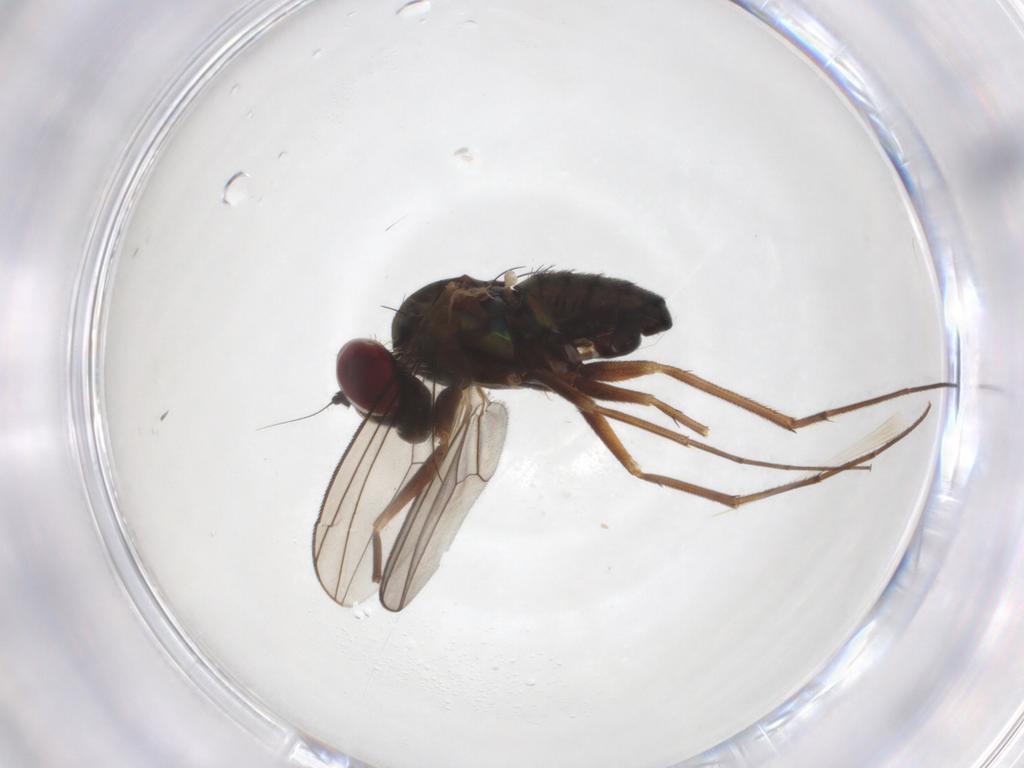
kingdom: Animalia
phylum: Arthropoda
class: Insecta
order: Diptera
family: Dolichopodidae
